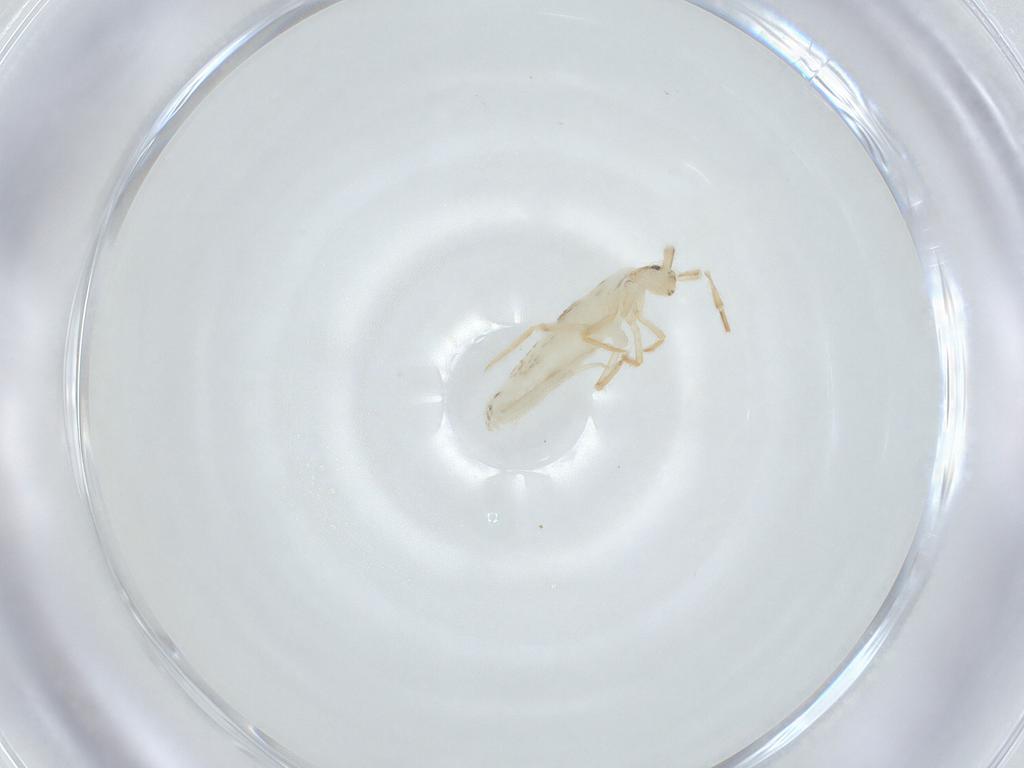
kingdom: Animalia
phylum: Arthropoda
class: Collembola
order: Entomobryomorpha
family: Entomobryidae
